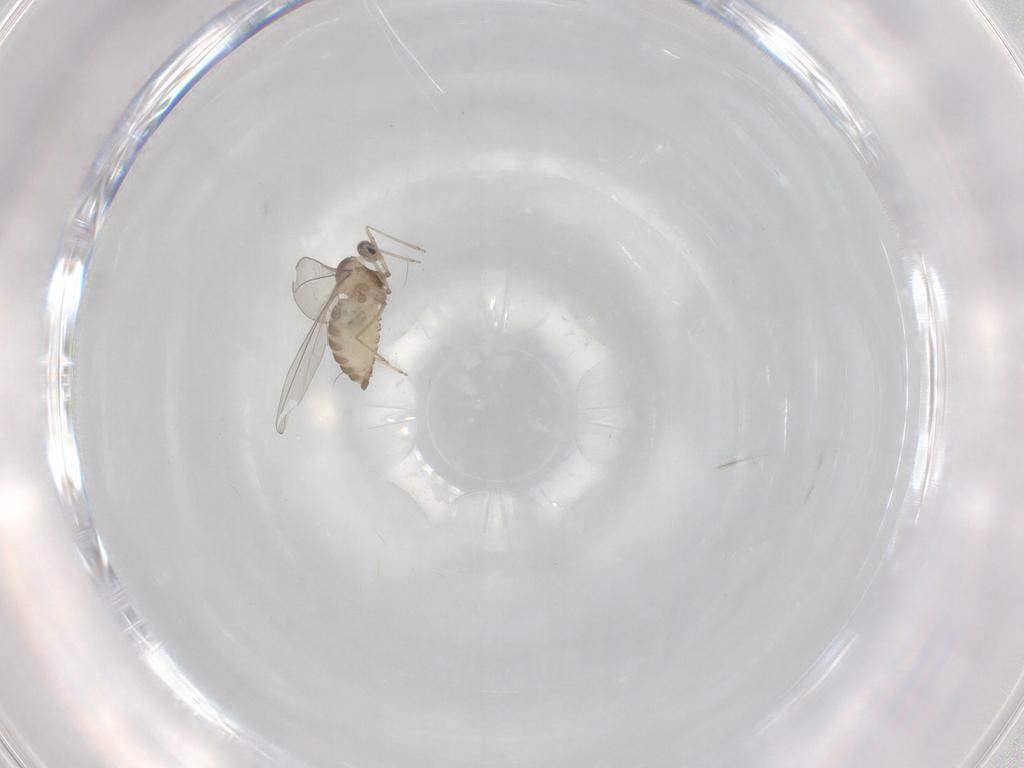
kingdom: Animalia
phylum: Arthropoda
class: Insecta
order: Diptera
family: Cecidomyiidae
